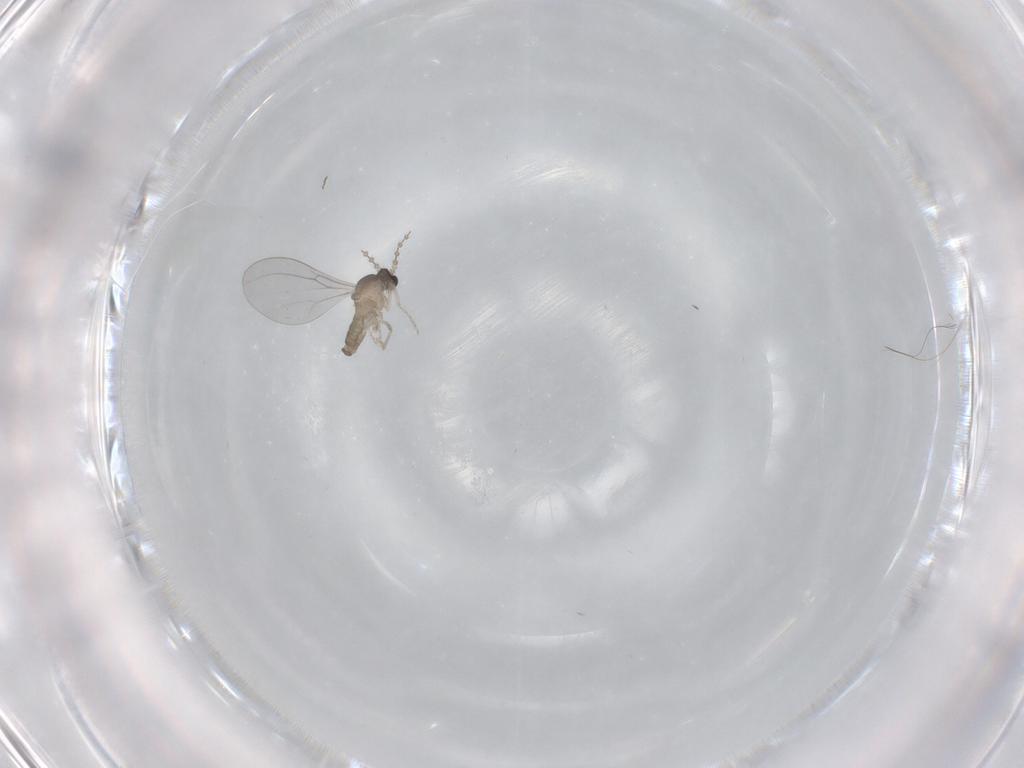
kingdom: Animalia
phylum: Arthropoda
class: Insecta
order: Diptera
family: Cecidomyiidae
